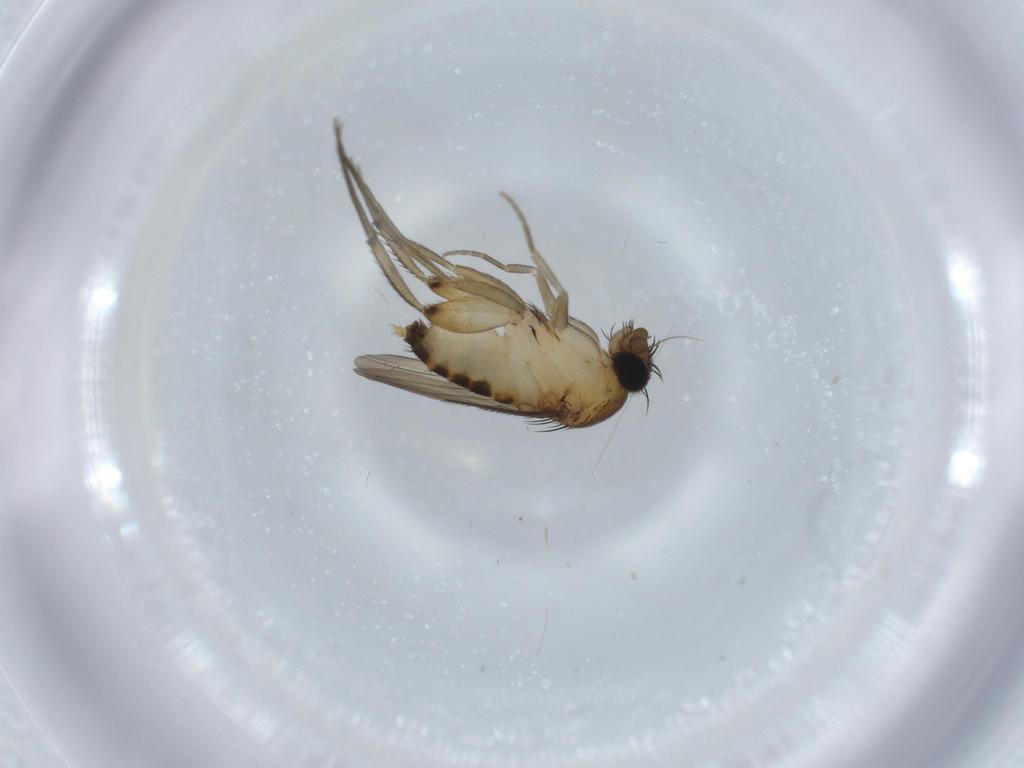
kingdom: Animalia
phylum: Arthropoda
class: Insecta
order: Diptera
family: Phoridae
